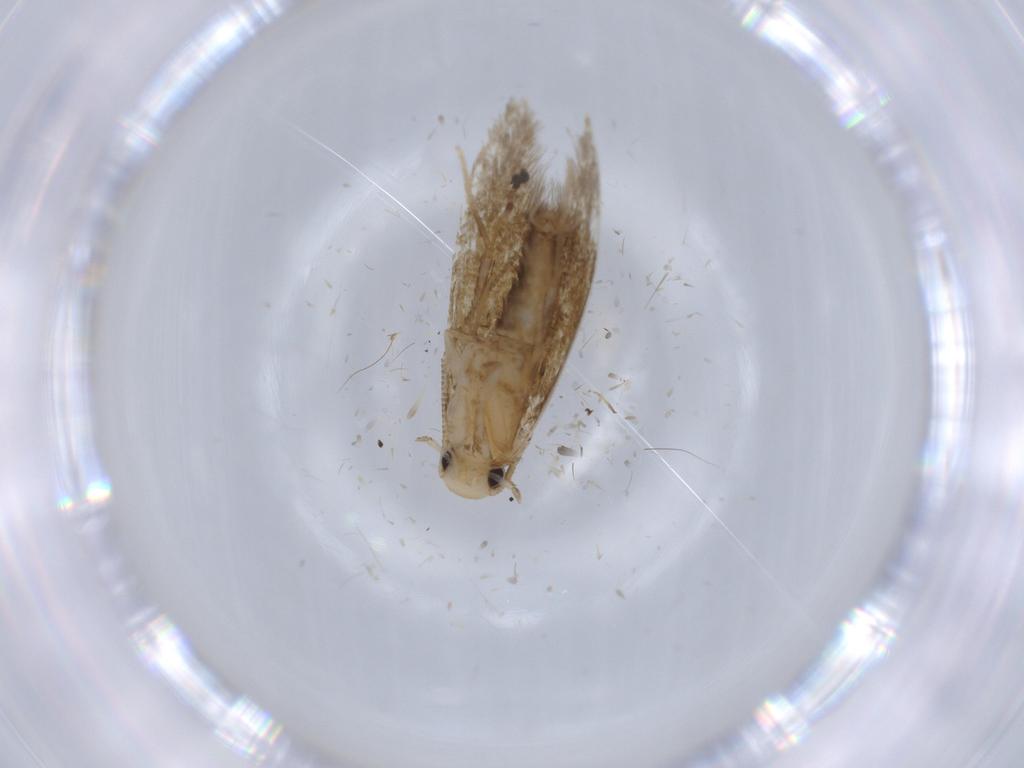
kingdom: Animalia
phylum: Arthropoda
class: Insecta
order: Lepidoptera
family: Tineidae
